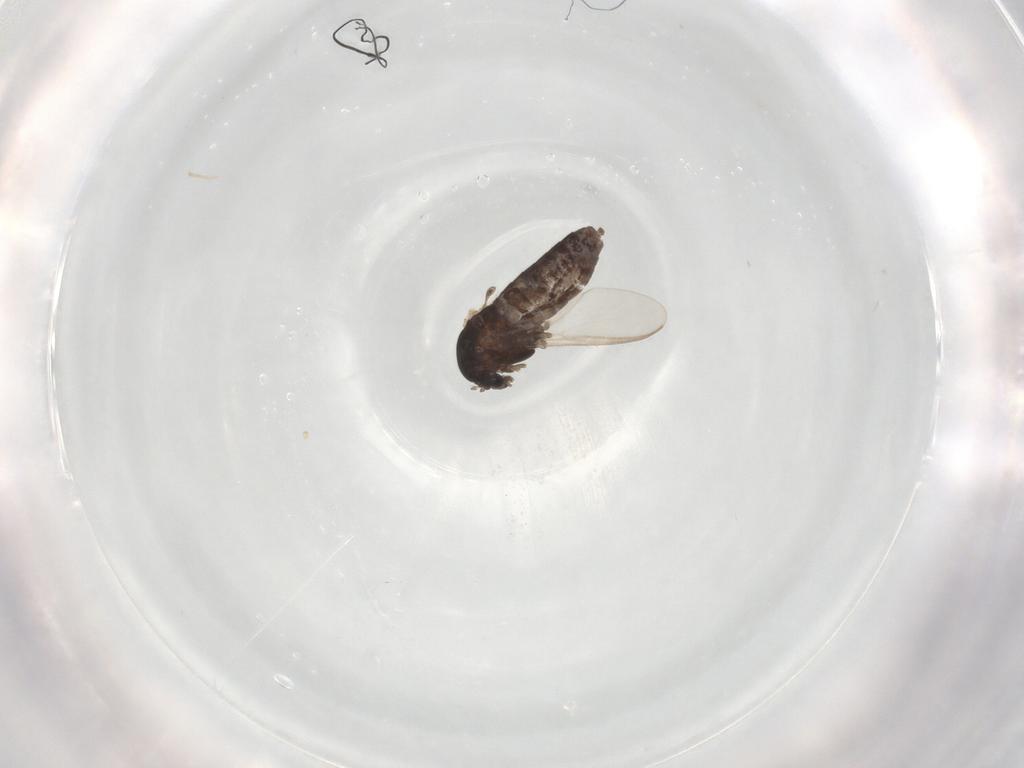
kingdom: Animalia
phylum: Arthropoda
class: Insecta
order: Diptera
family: Chironomidae
